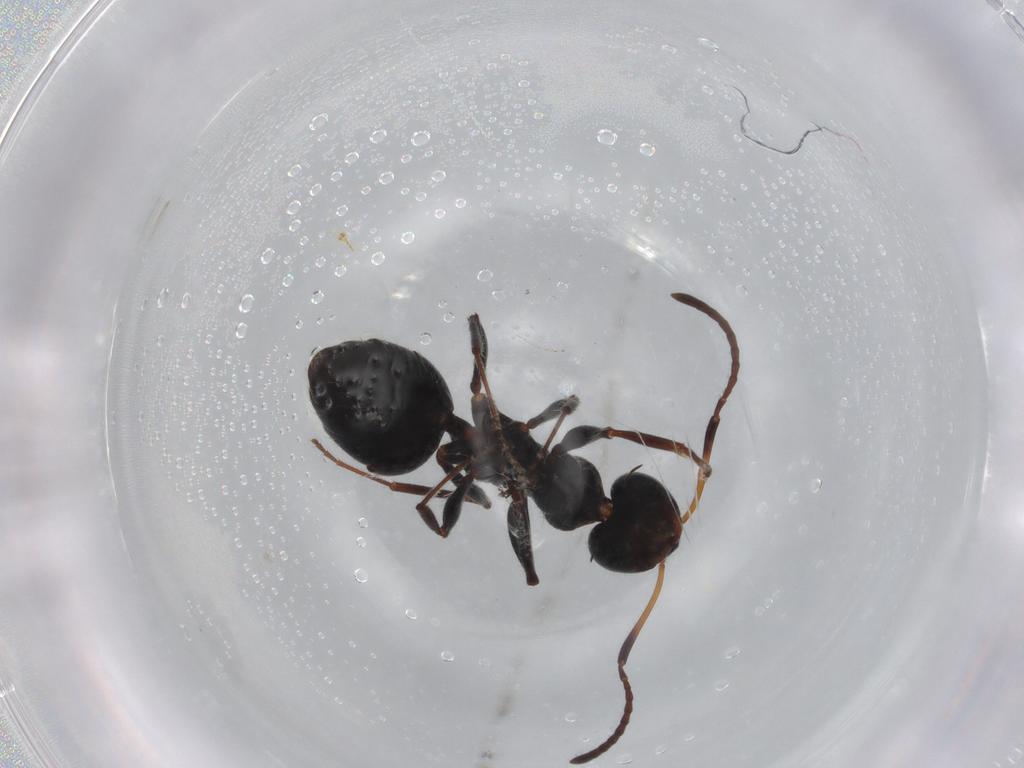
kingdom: Animalia
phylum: Arthropoda
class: Insecta
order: Hymenoptera
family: Formicidae
